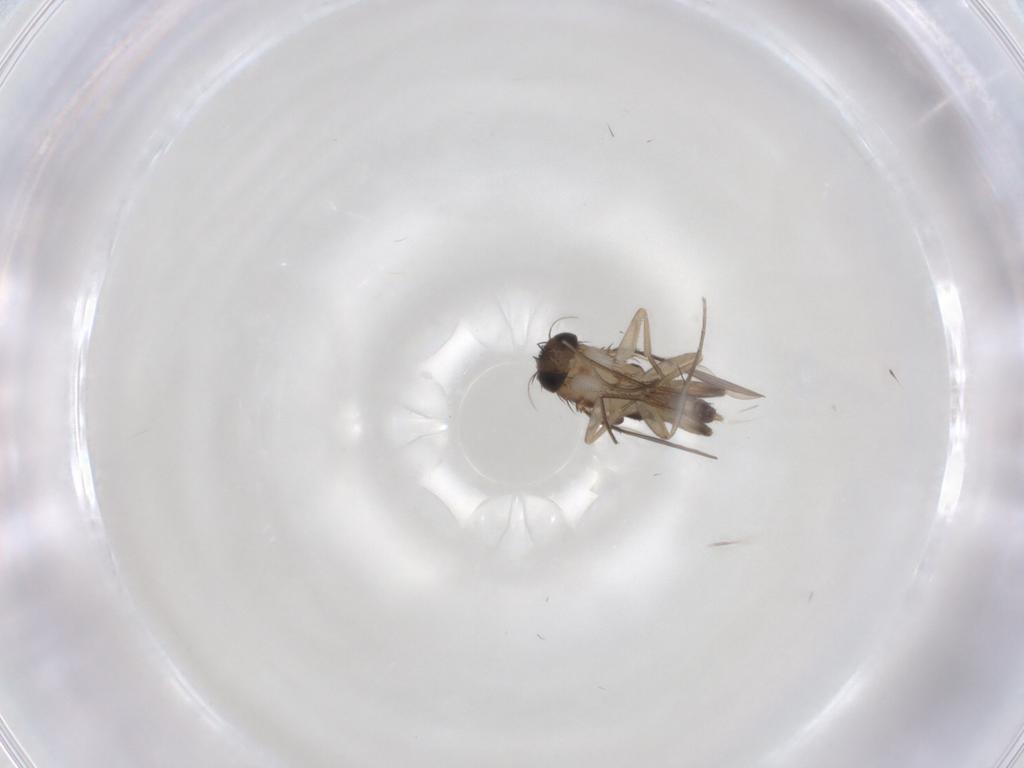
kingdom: Animalia
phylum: Arthropoda
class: Insecta
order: Diptera
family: Phoridae
